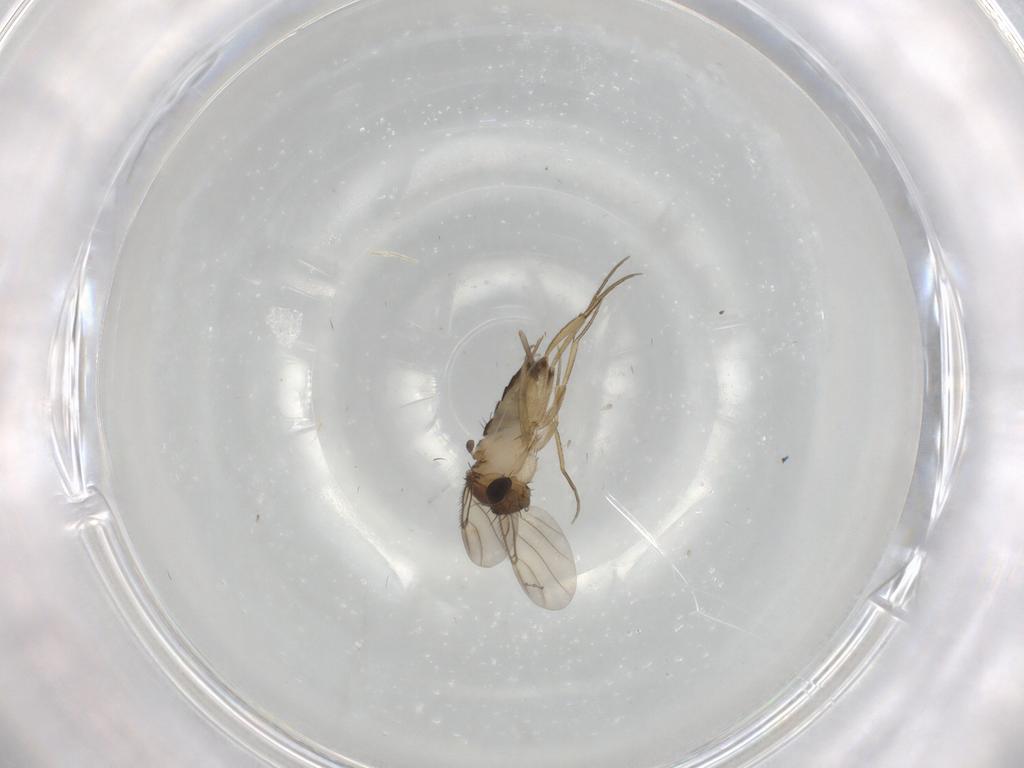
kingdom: Animalia
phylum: Arthropoda
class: Insecta
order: Diptera
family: Phoridae
